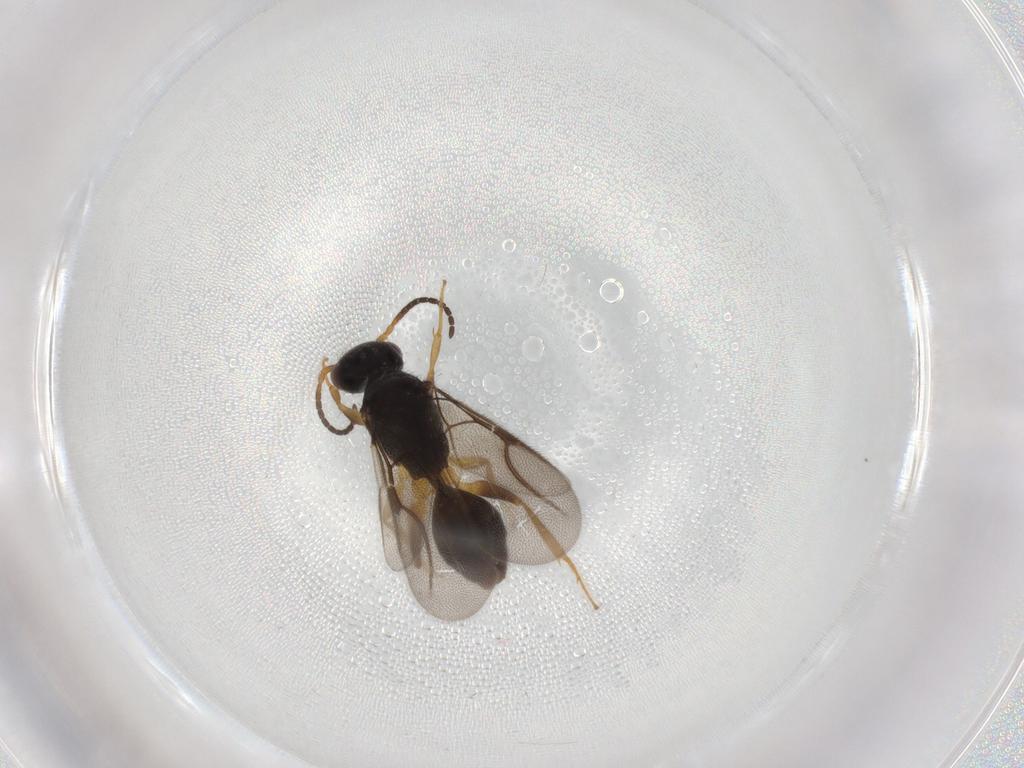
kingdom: Animalia
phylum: Arthropoda
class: Insecta
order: Hymenoptera
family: Bethylidae
